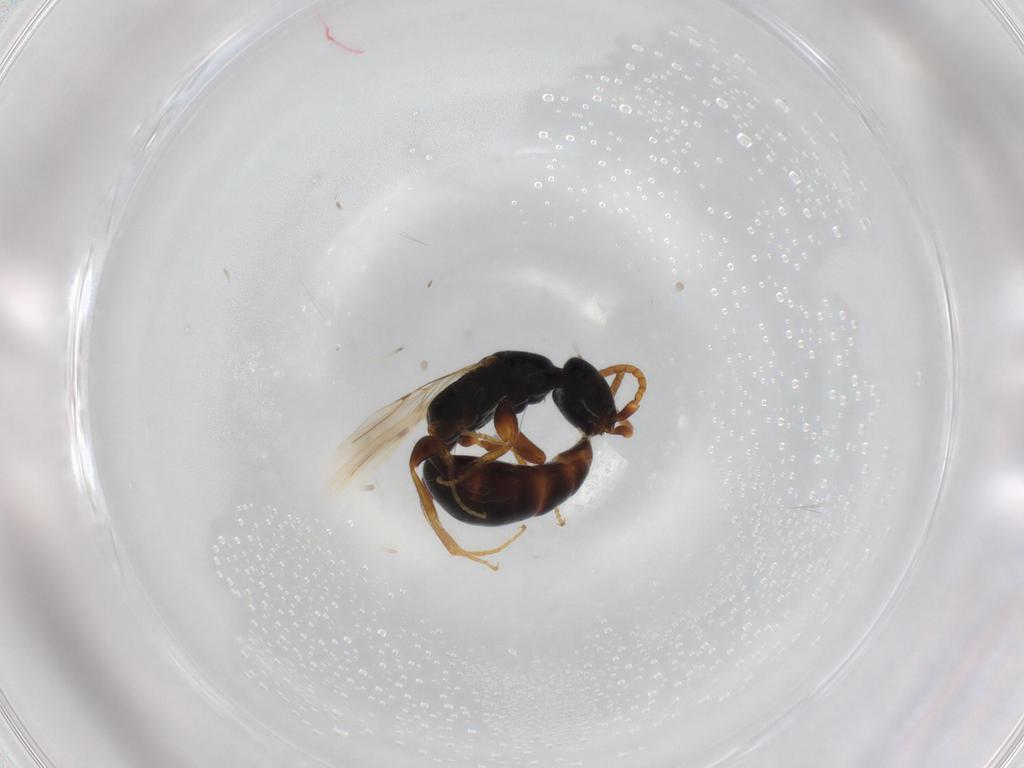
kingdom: Animalia
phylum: Arthropoda
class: Insecta
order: Hymenoptera
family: Bethylidae
